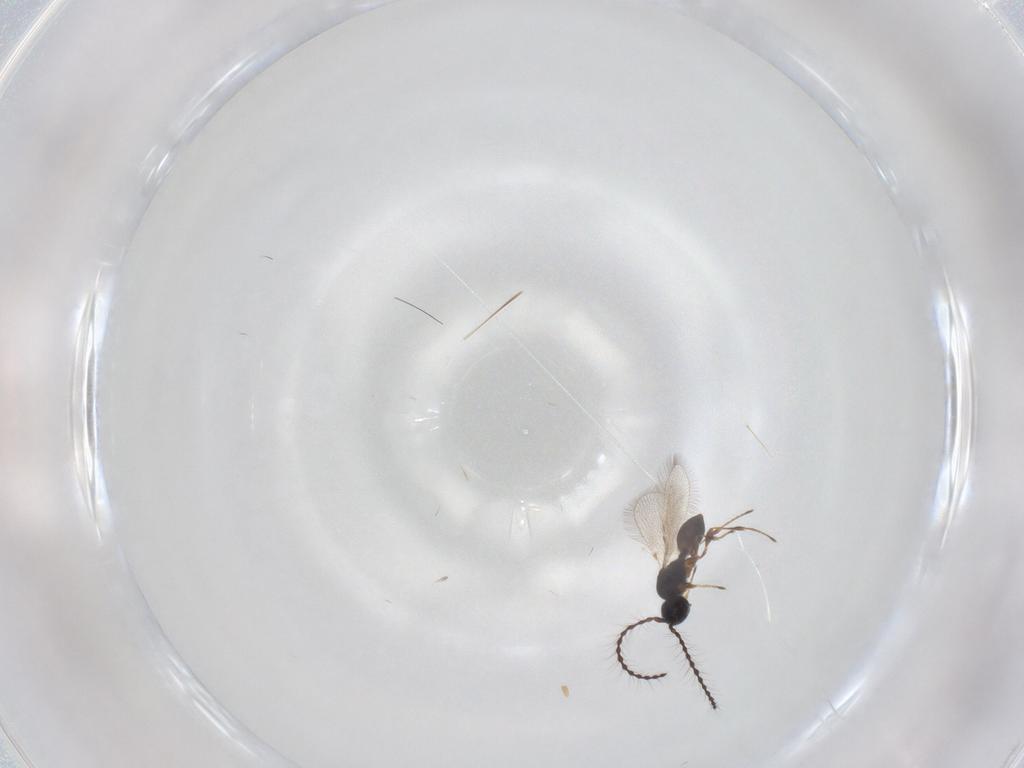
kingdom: Animalia
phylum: Arthropoda
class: Insecta
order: Hymenoptera
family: Diapriidae
